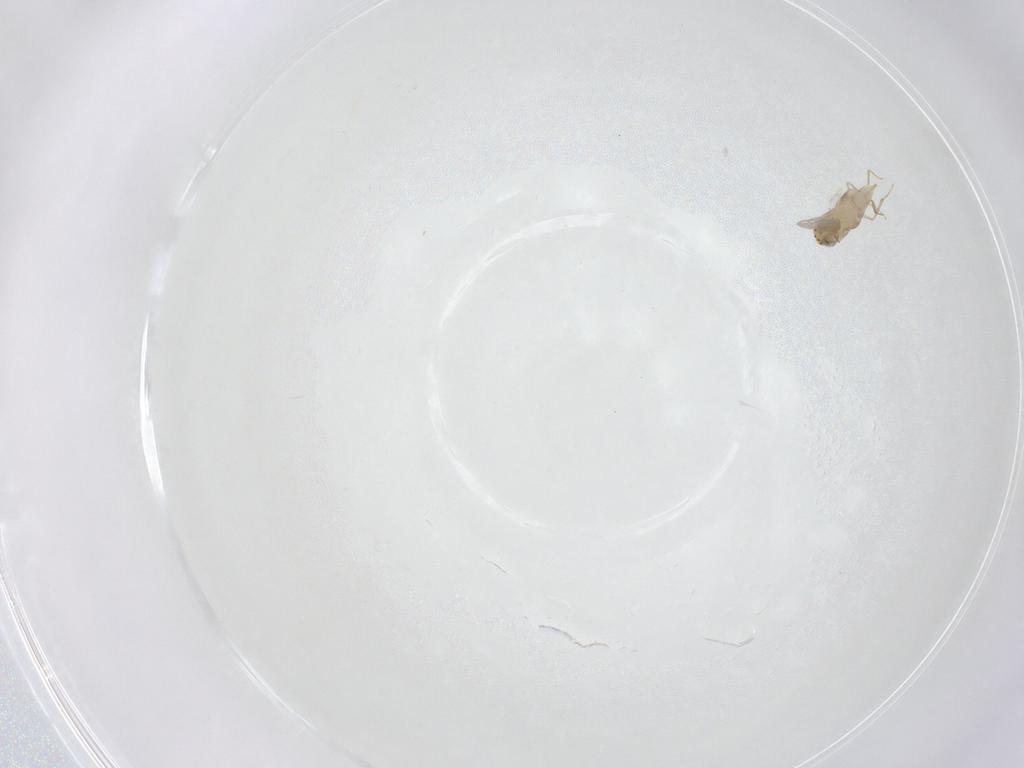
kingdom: Animalia
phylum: Arthropoda
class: Insecta
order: Hymenoptera
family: Aphelinidae
